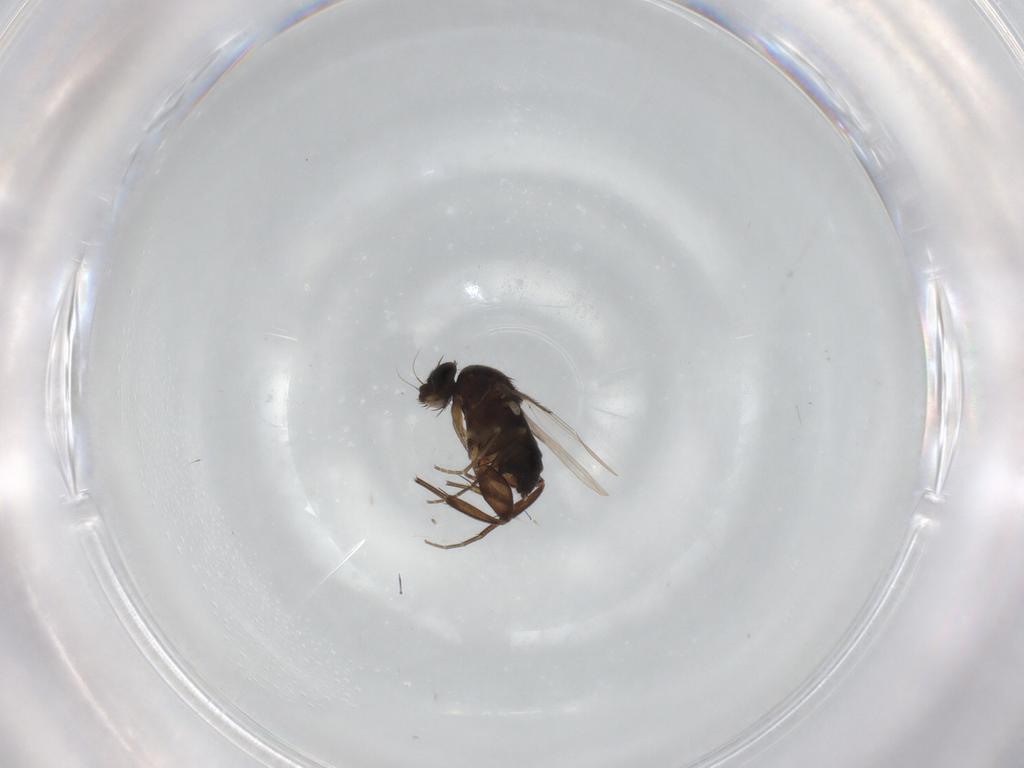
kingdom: Animalia
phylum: Arthropoda
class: Insecta
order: Diptera
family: Phoridae
